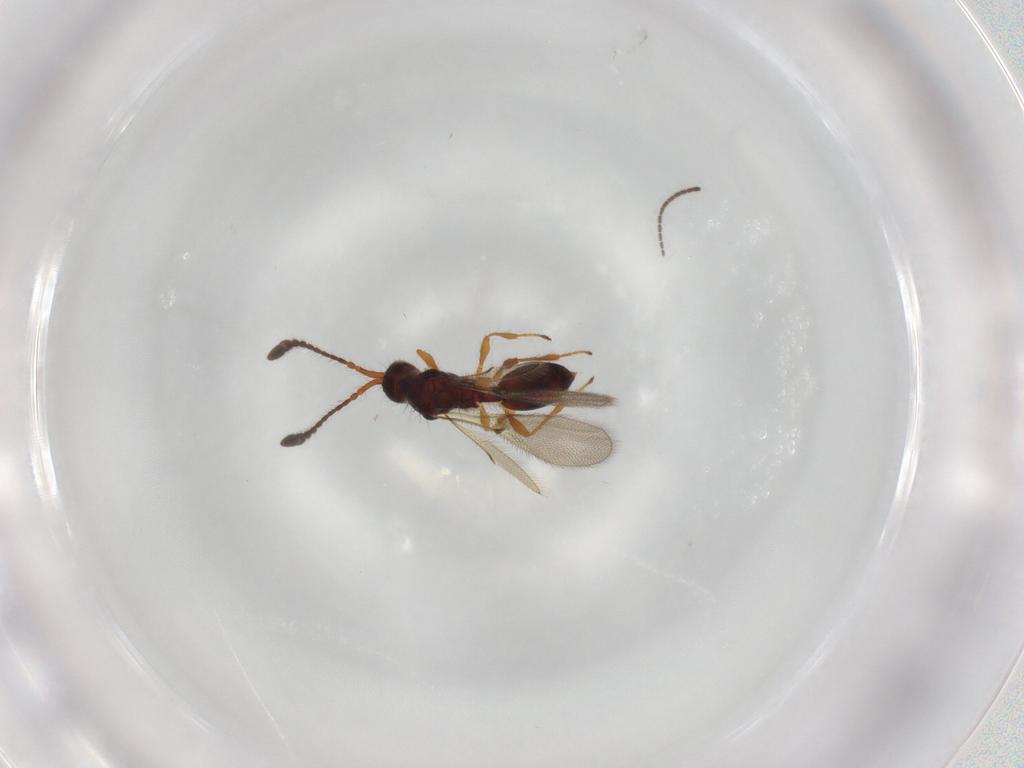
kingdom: Animalia
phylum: Arthropoda
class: Insecta
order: Hymenoptera
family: Diapriidae
